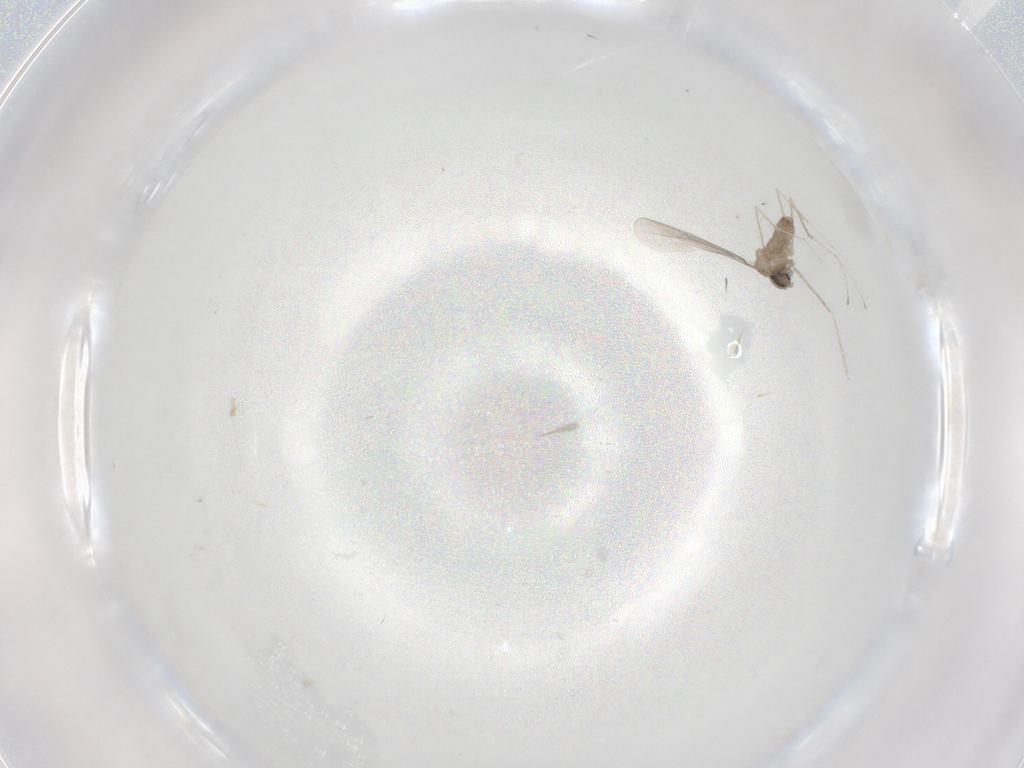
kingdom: Animalia
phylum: Arthropoda
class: Insecta
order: Diptera
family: Cecidomyiidae
